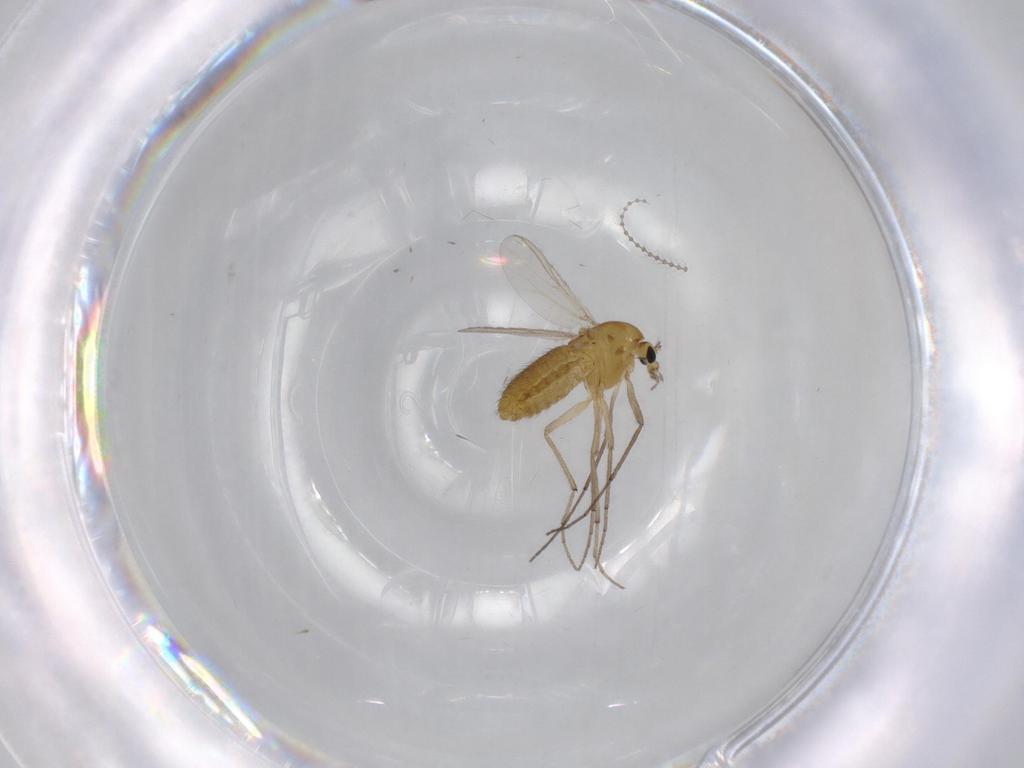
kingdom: Animalia
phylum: Arthropoda
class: Insecta
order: Diptera
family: Cecidomyiidae
